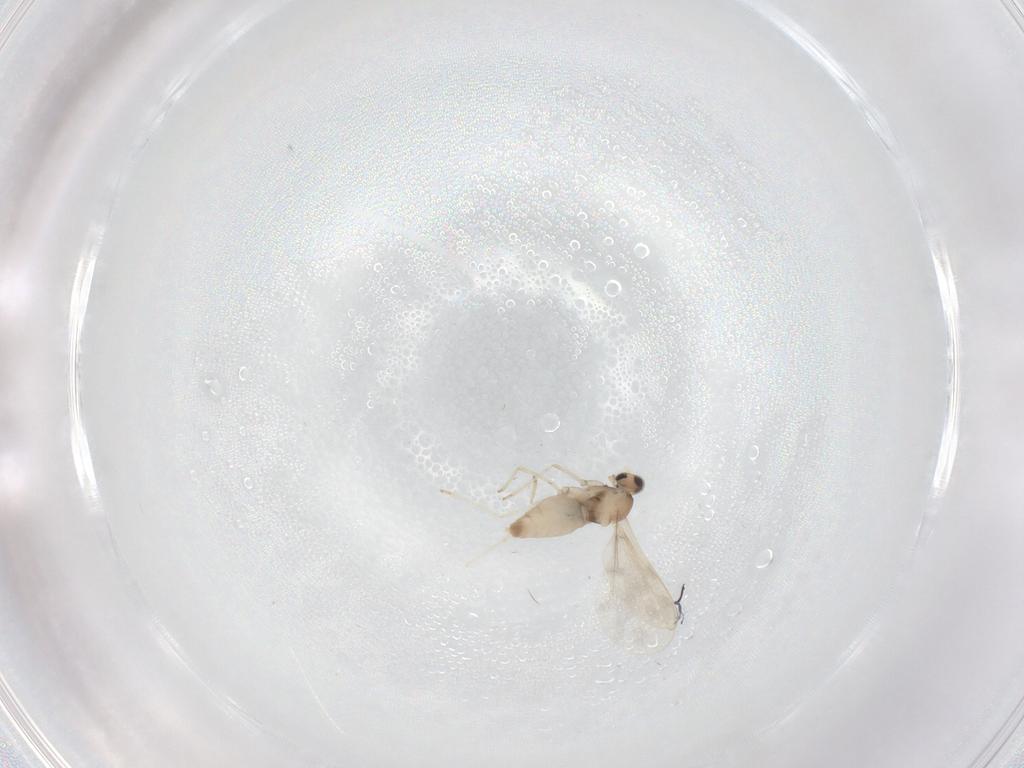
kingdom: Animalia
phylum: Arthropoda
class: Insecta
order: Diptera
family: Cecidomyiidae
